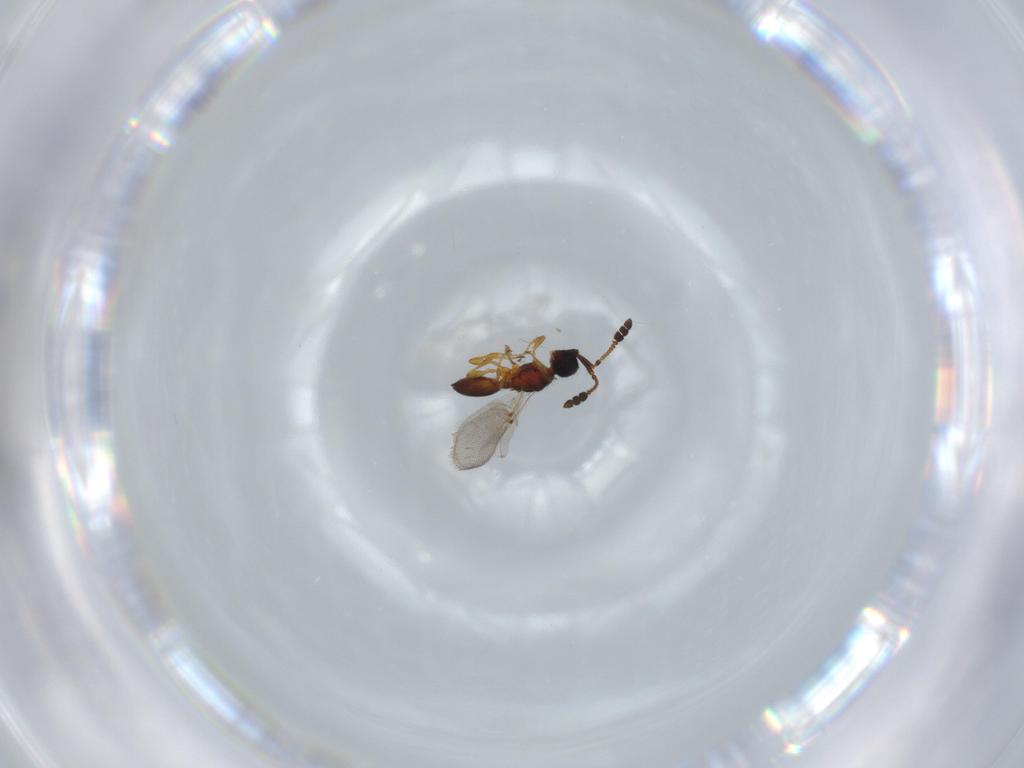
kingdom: Animalia
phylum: Arthropoda
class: Insecta
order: Hymenoptera
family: Diapriidae
